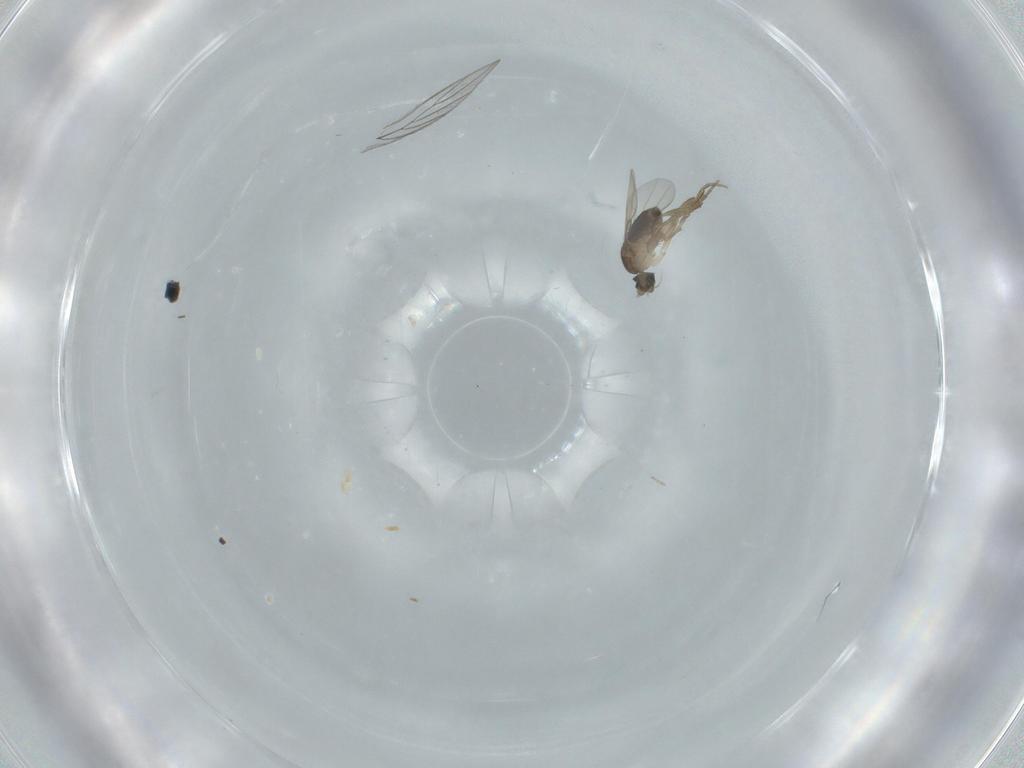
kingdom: Animalia
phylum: Arthropoda
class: Insecta
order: Diptera
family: Phoridae
